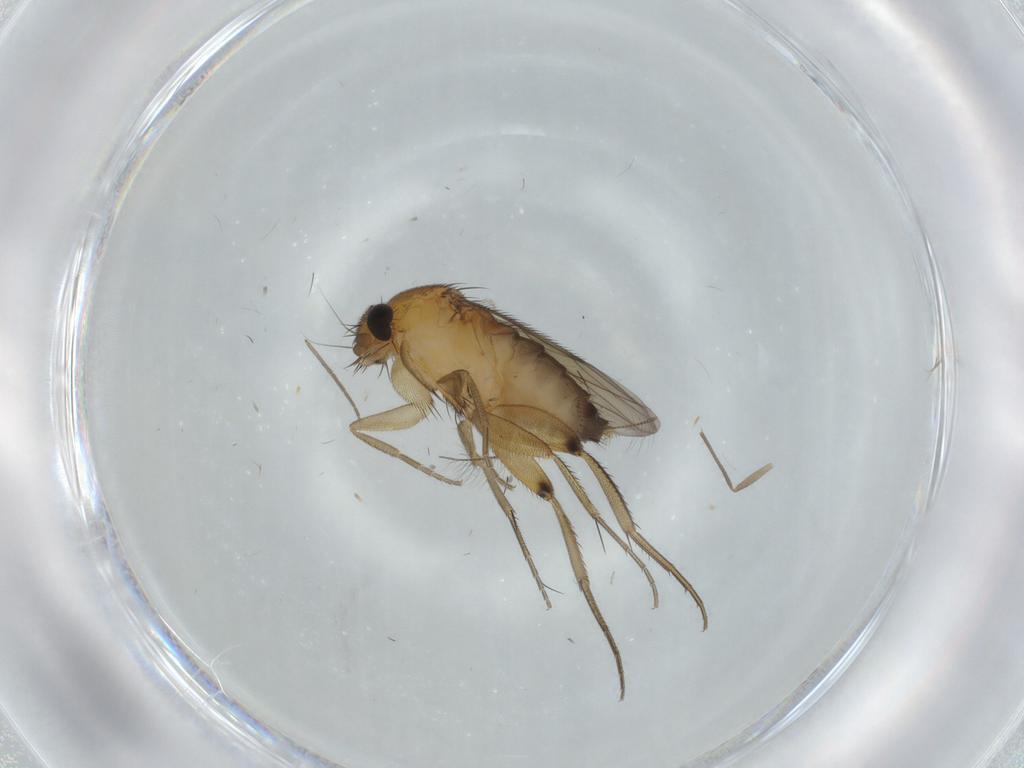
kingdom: Animalia
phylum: Arthropoda
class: Insecta
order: Diptera
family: Phoridae
